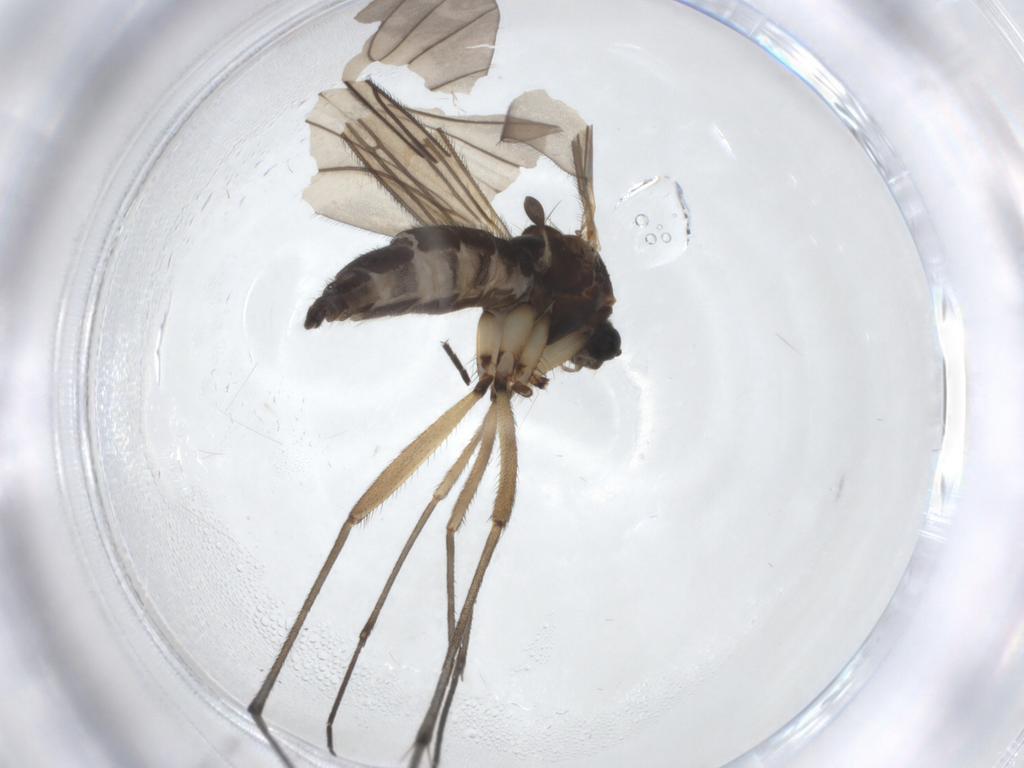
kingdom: Animalia
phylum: Arthropoda
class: Insecta
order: Diptera
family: Sciaridae
